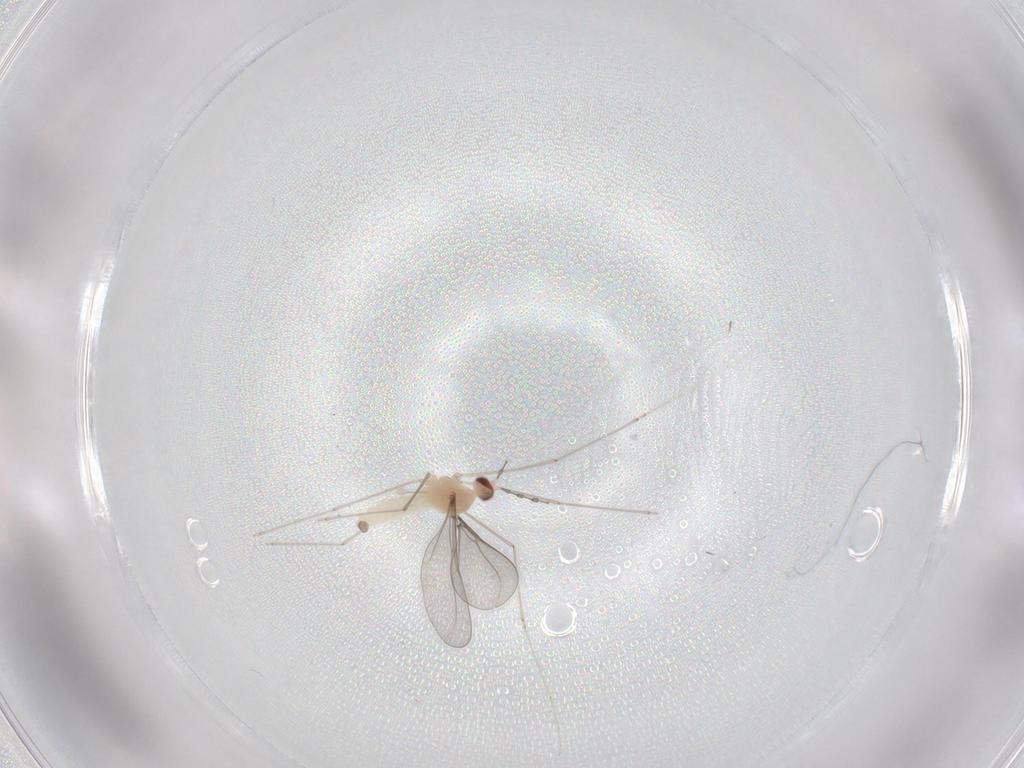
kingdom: Animalia
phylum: Arthropoda
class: Insecta
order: Diptera
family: Cecidomyiidae
